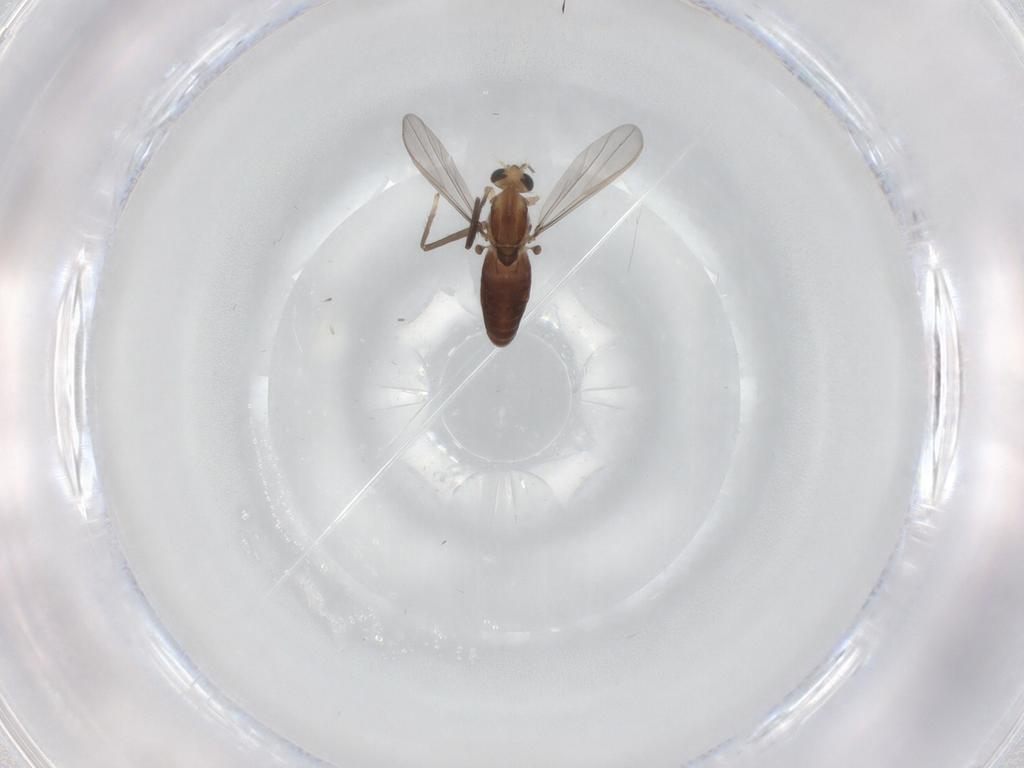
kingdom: Animalia
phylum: Arthropoda
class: Insecta
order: Diptera
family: Chironomidae
